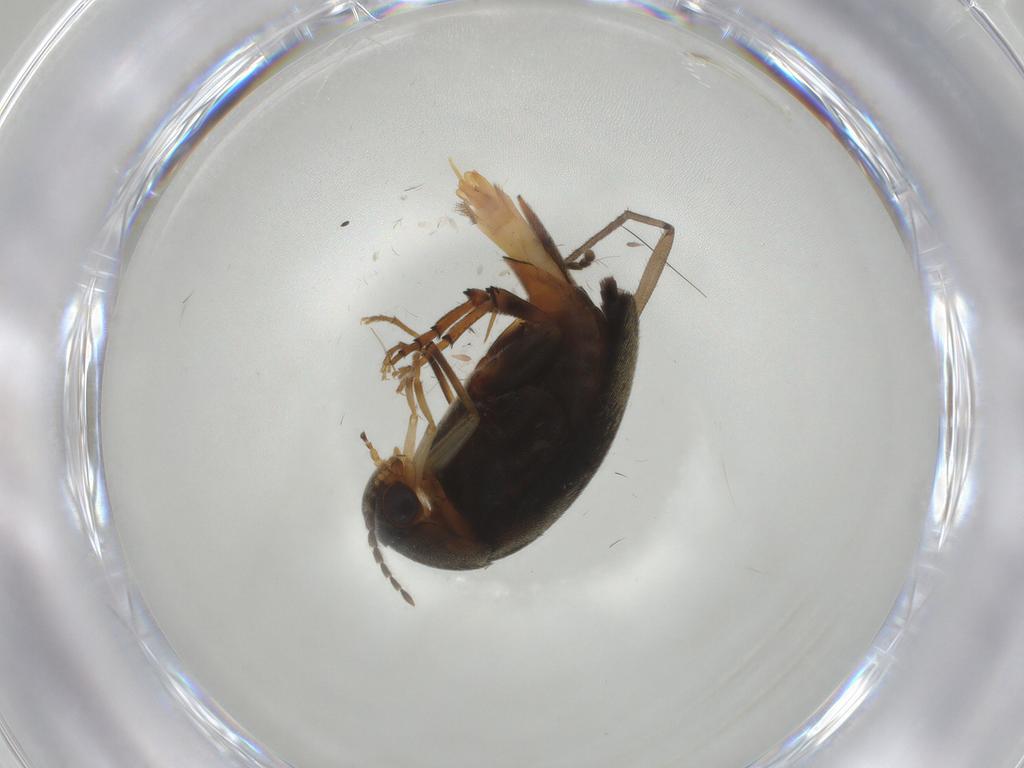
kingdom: Animalia
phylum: Arthropoda
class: Insecta
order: Coleoptera
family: Mordellidae
